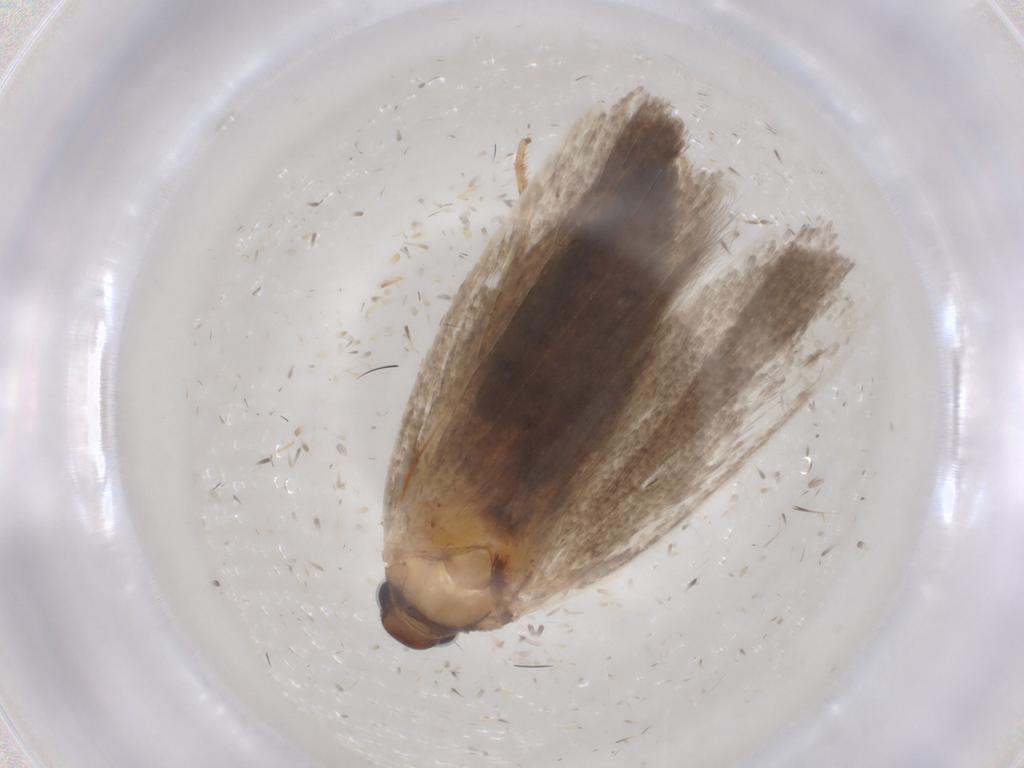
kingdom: Animalia
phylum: Arthropoda
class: Insecta
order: Lepidoptera
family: Gelechiidae
